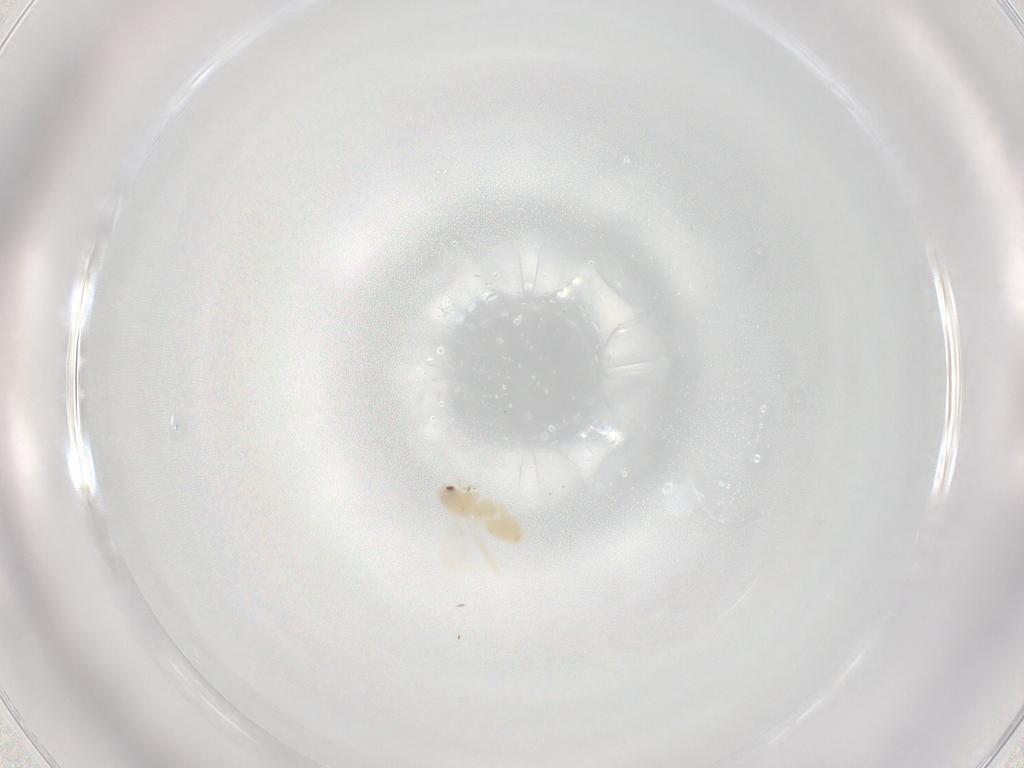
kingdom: Animalia
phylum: Arthropoda
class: Insecta
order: Hemiptera
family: Aleyrodidae
